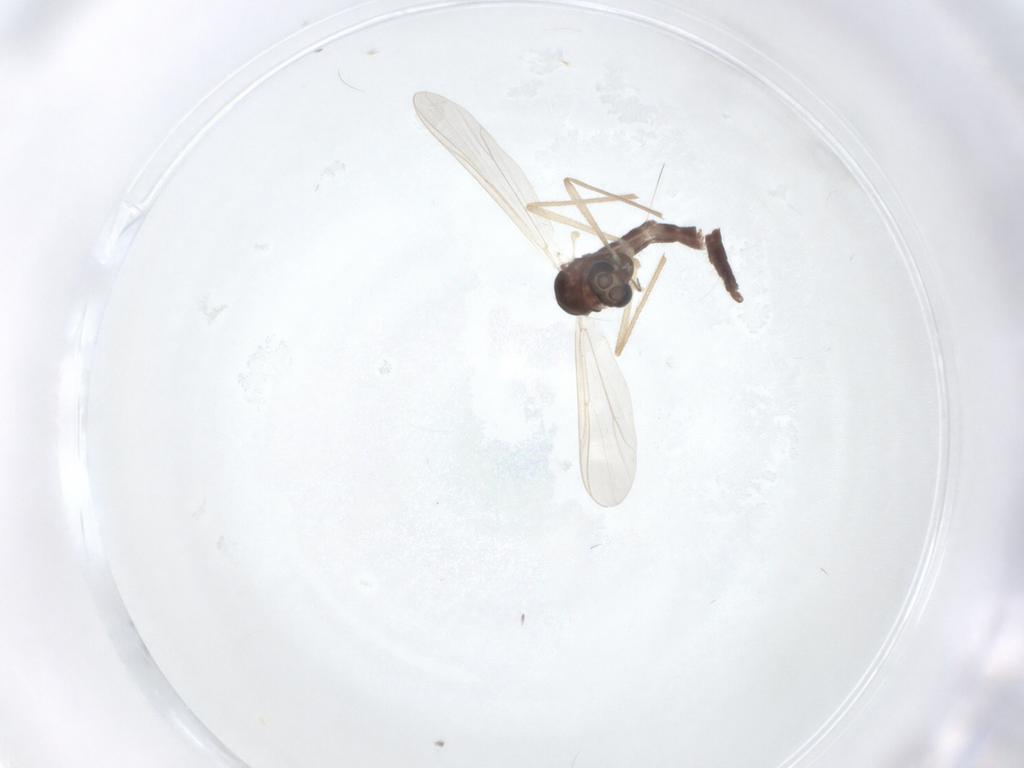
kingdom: Animalia
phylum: Arthropoda
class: Insecta
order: Diptera
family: Chironomidae
